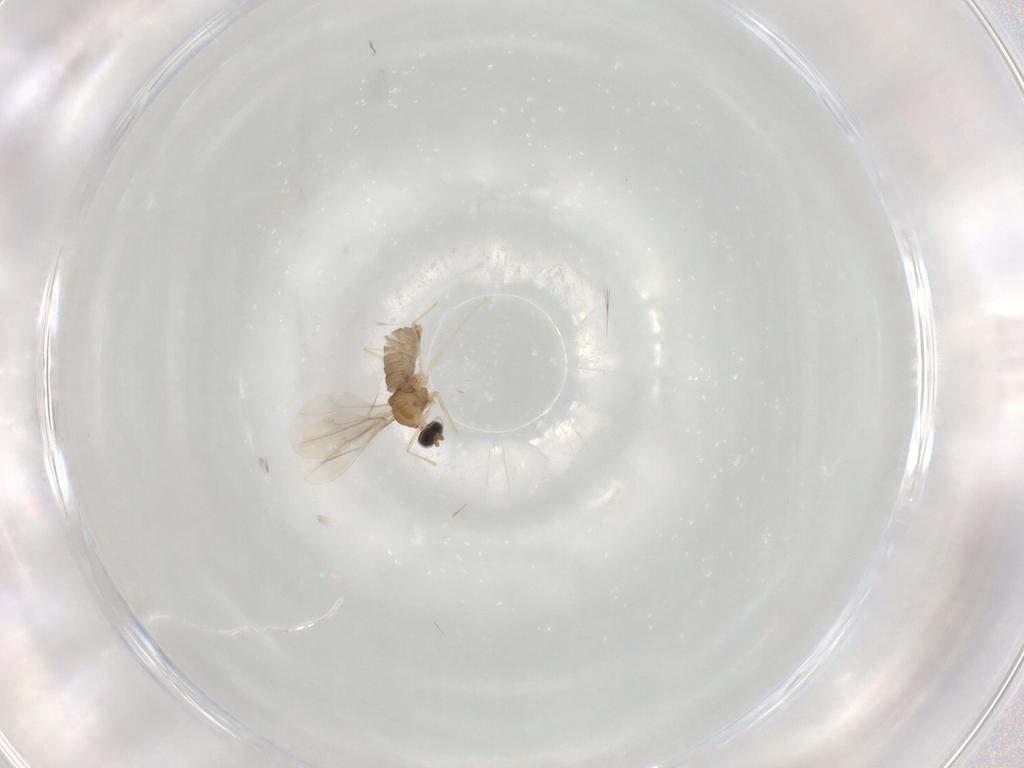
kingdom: Animalia
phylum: Arthropoda
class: Insecta
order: Diptera
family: Cecidomyiidae
